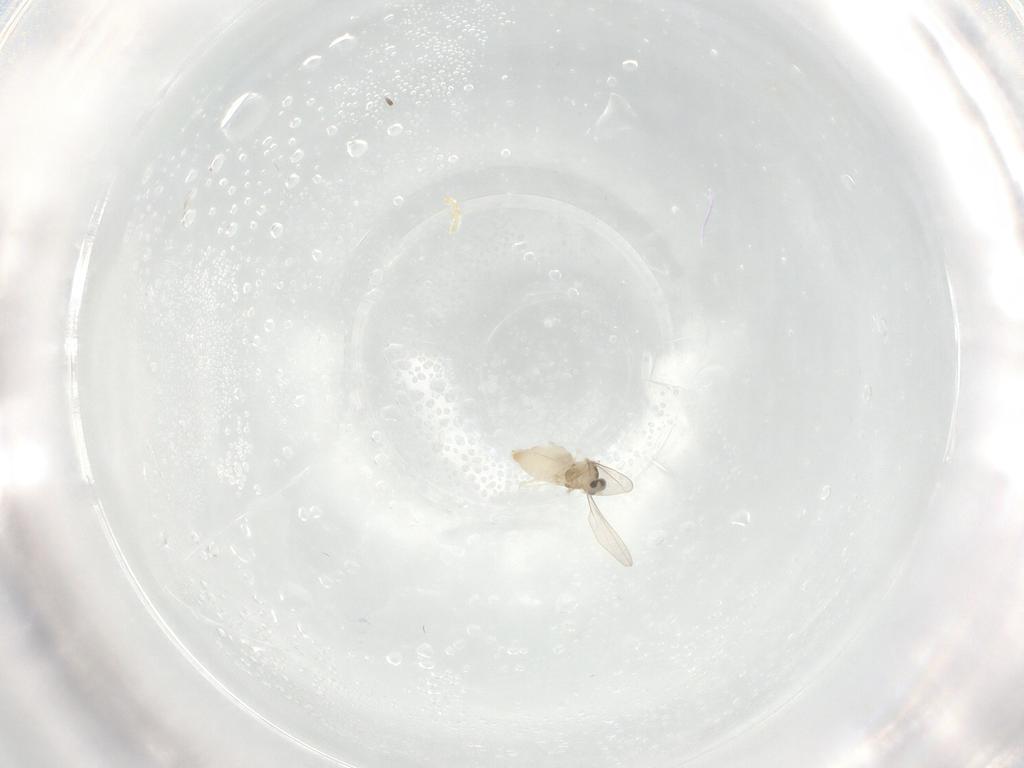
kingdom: Animalia
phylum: Arthropoda
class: Insecta
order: Diptera
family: Cecidomyiidae
